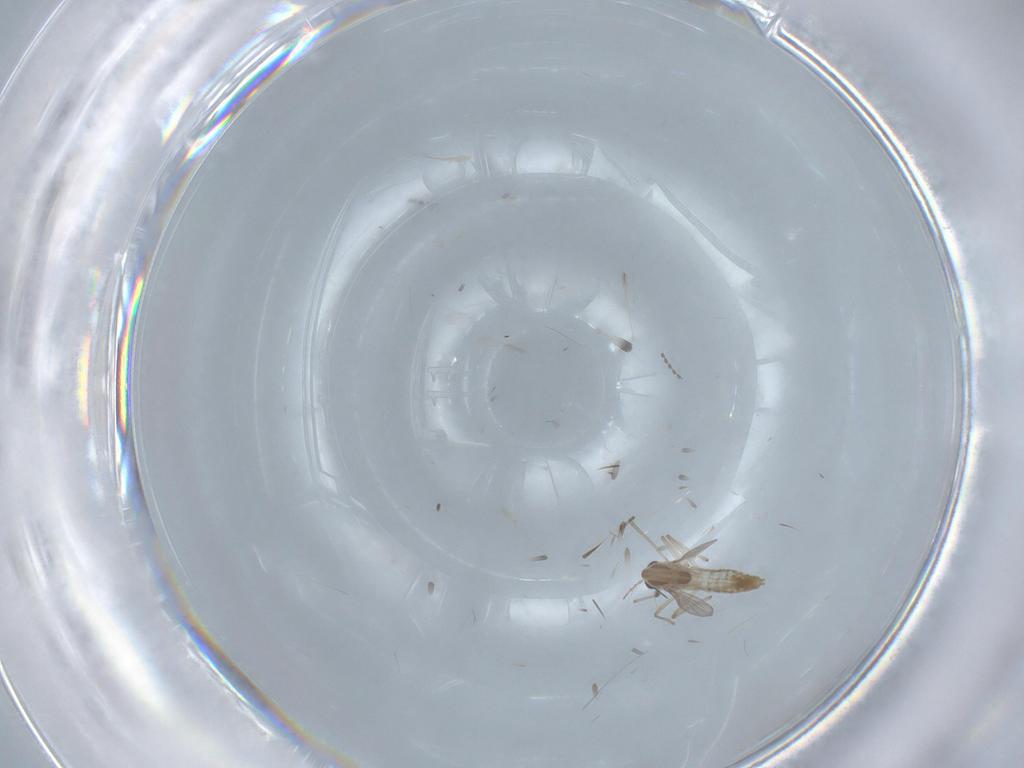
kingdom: Animalia
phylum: Arthropoda
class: Insecta
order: Diptera
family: Chironomidae
